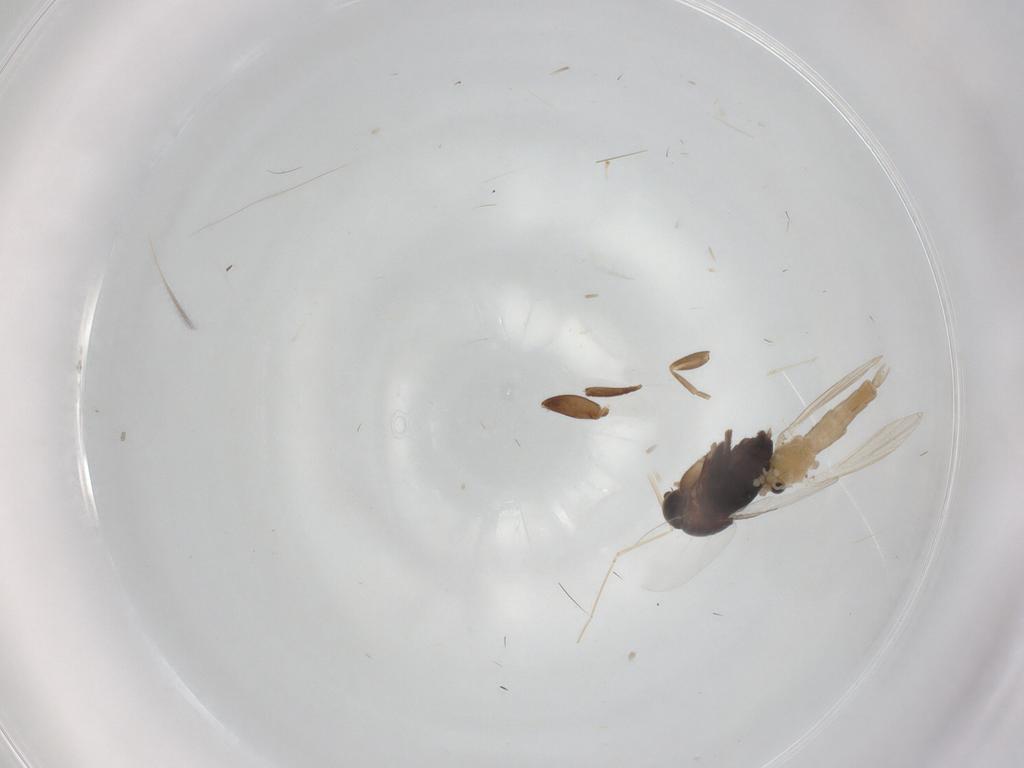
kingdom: Animalia
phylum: Arthropoda
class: Insecta
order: Diptera
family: Psychodidae
